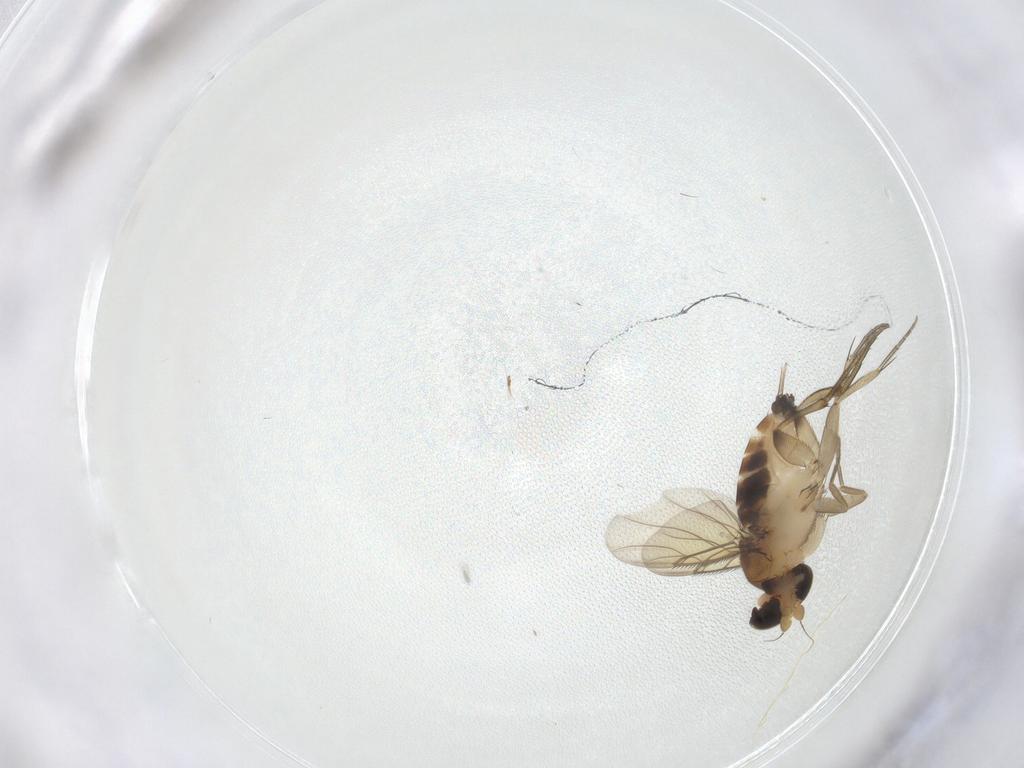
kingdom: Animalia
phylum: Arthropoda
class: Insecta
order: Diptera
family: Phoridae
